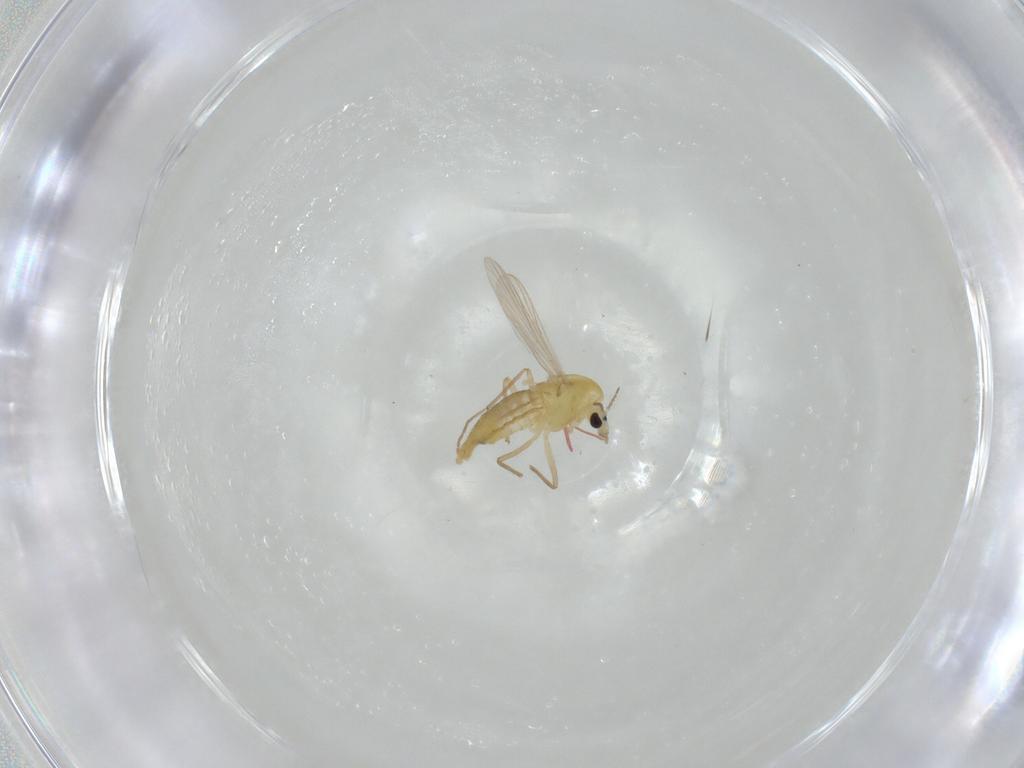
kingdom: Animalia
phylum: Arthropoda
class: Insecta
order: Diptera
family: Chironomidae
